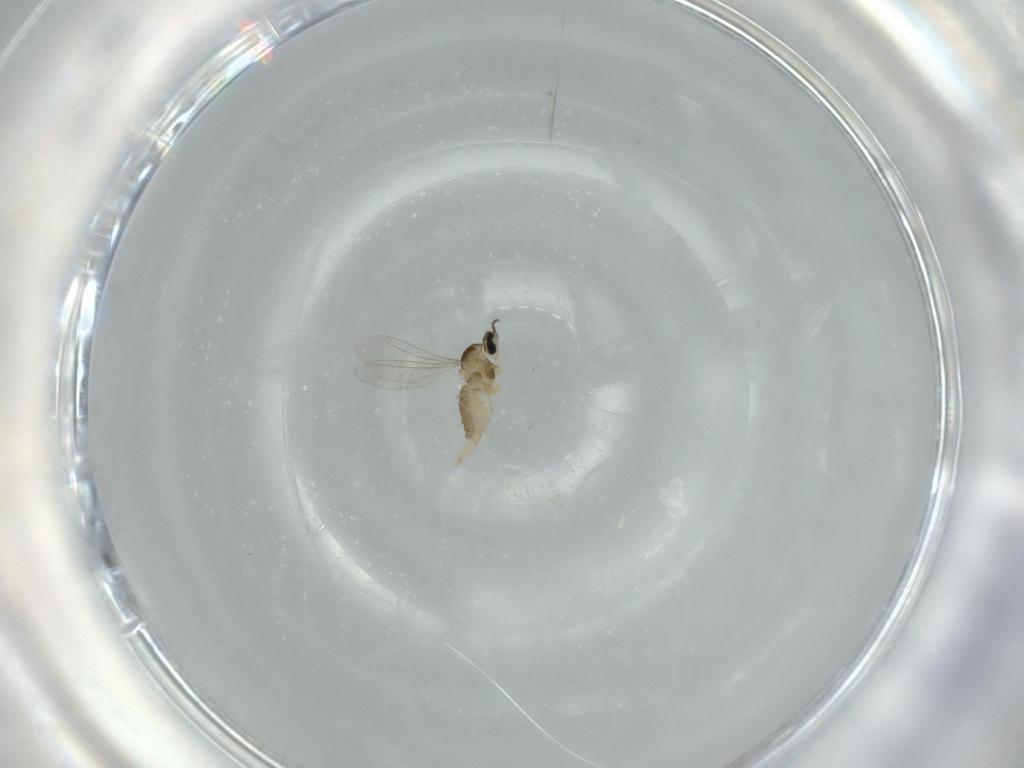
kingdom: Animalia
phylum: Arthropoda
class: Insecta
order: Diptera
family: Cecidomyiidae
